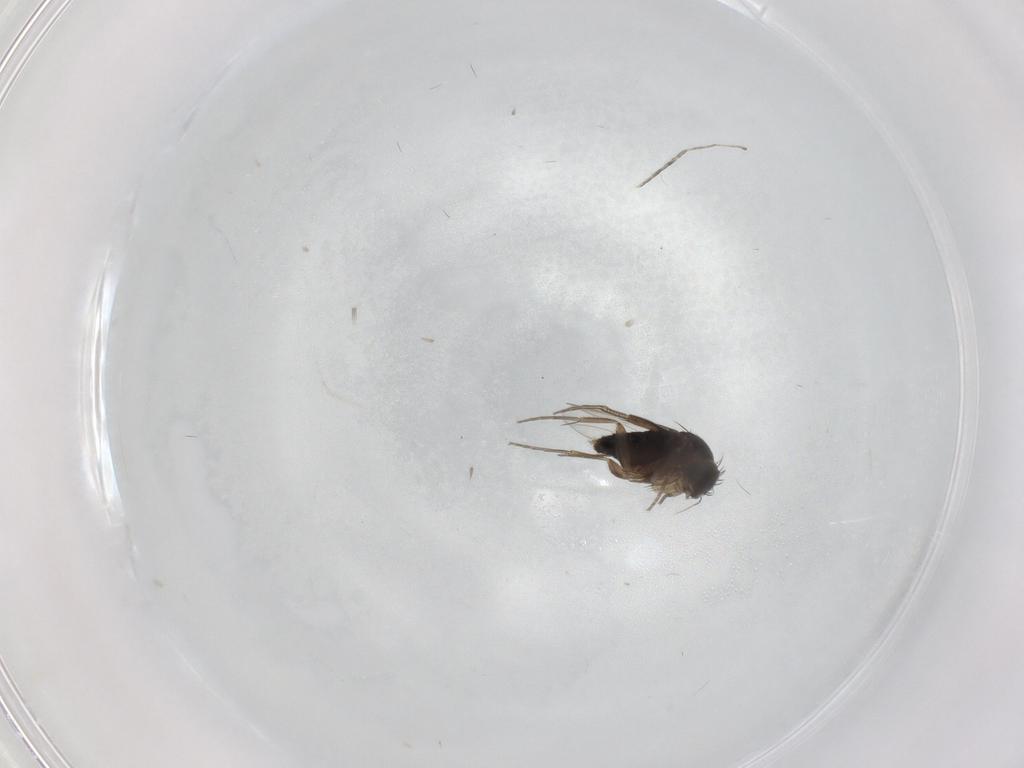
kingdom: Animalia
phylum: Arthropoda
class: Insecta
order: Diptera
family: Phoridae
